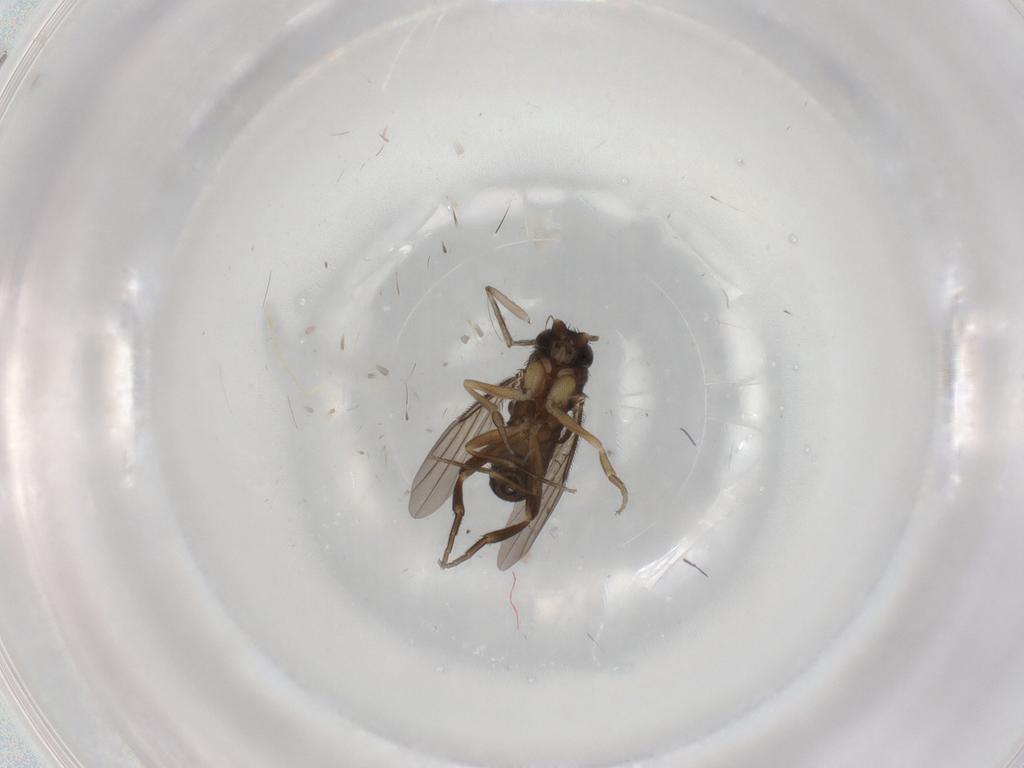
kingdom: Animalia
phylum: Arthropoda
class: Insecta
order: Diptera
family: Phoridae
